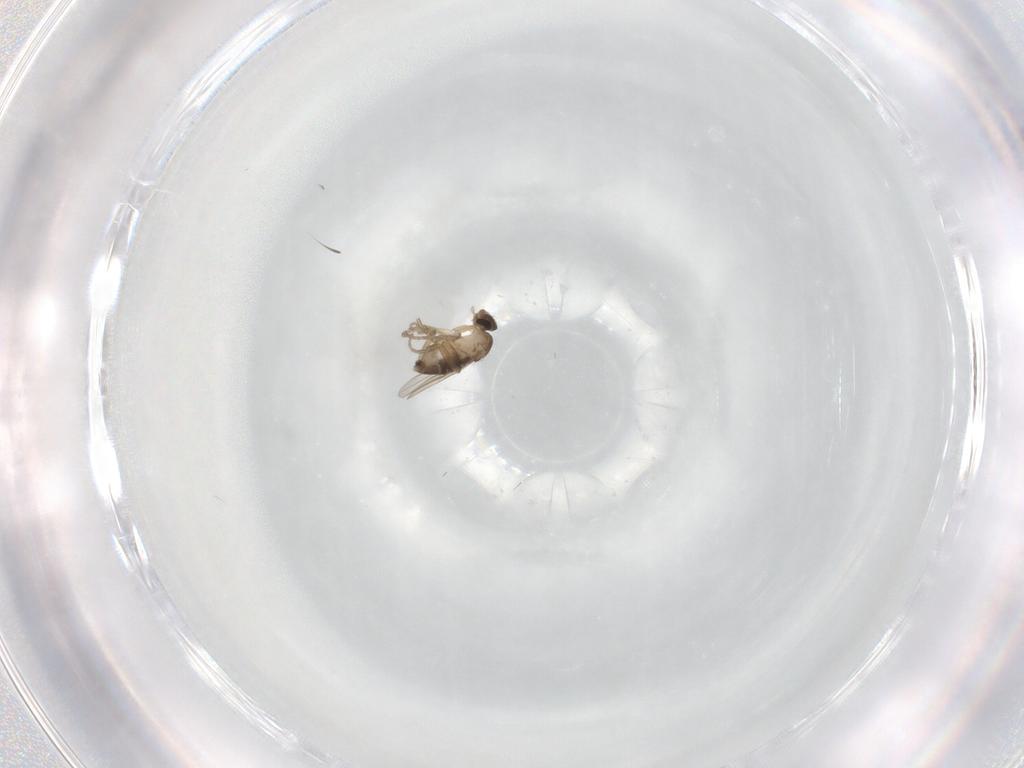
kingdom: Animalia
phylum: Arthropoda
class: Insecta
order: Diptera
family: Phoridae
